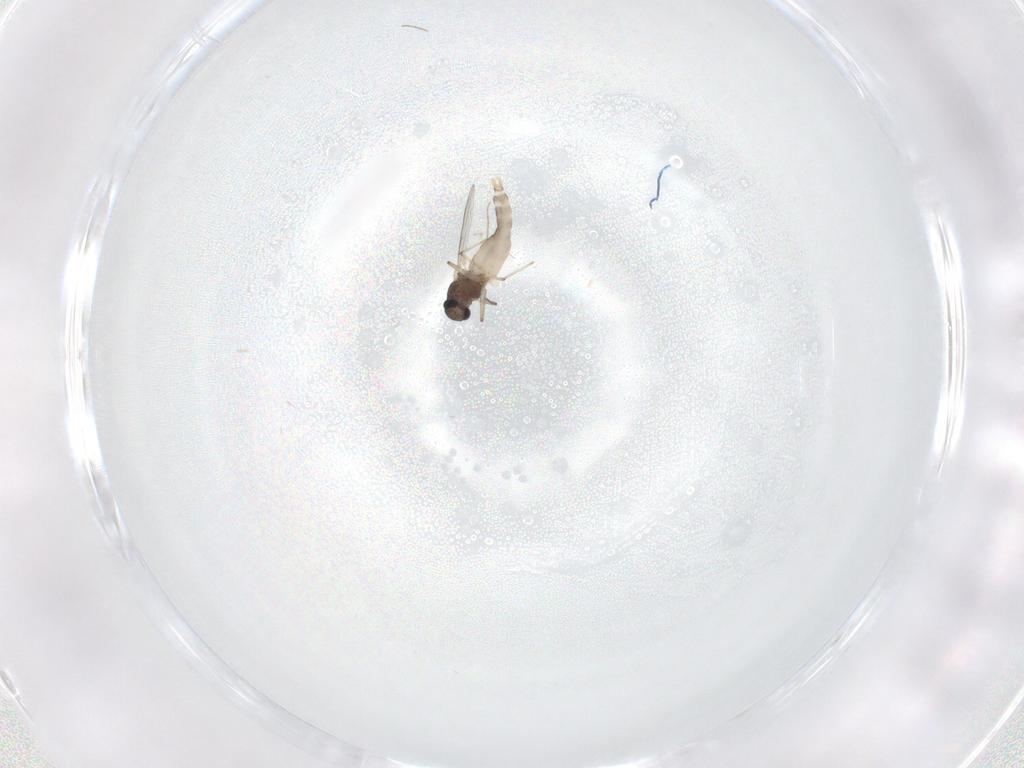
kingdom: Animalia
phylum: Arthropoda
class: Insecta
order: Diptera
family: Chironomidae
